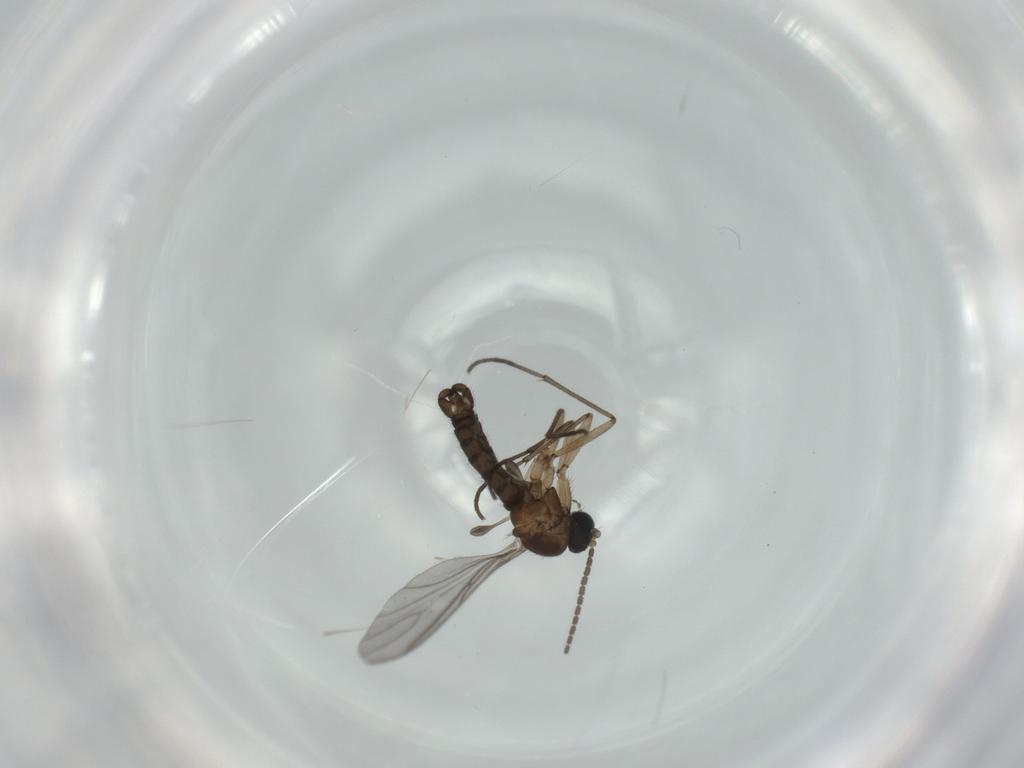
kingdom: Animalia
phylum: Arthropoda
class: Insecta
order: Diptera
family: Sciaridae
